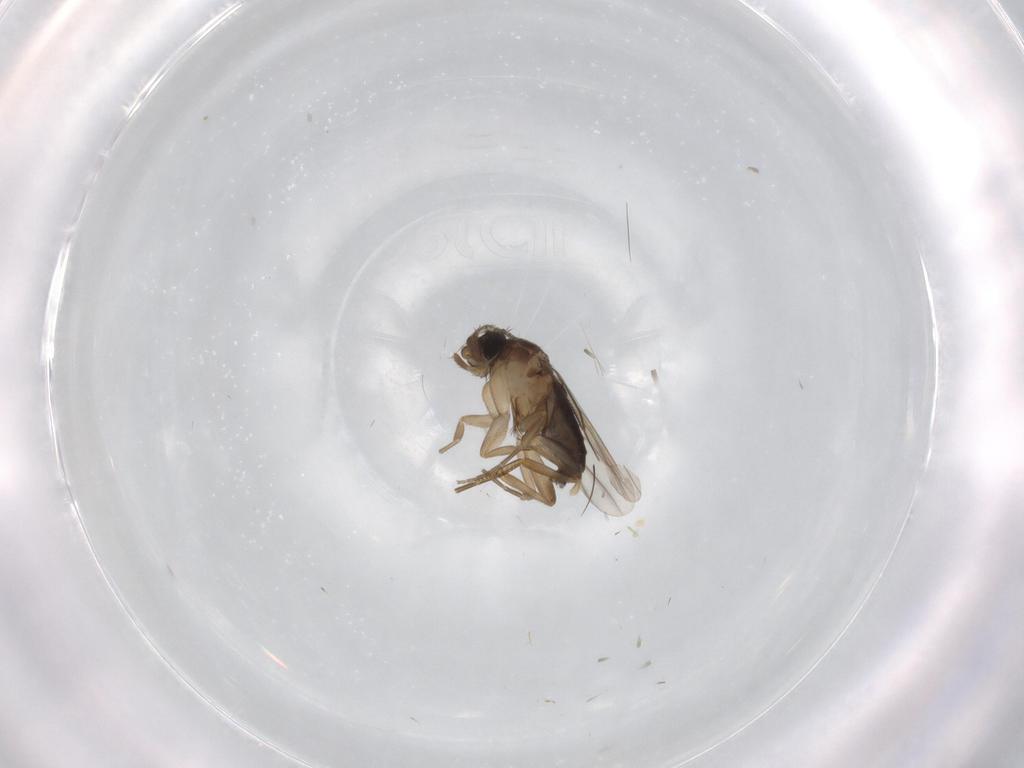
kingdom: Animalia
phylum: Arthropoda
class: Insecta
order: Diptera
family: Phoridae
